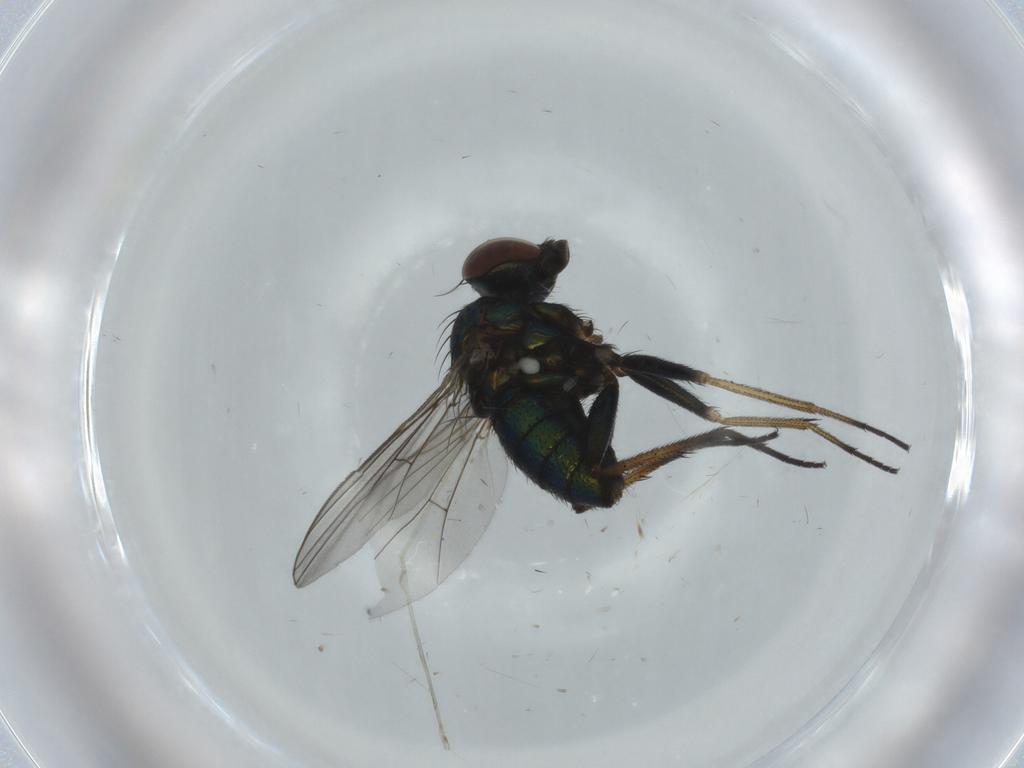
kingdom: Animalia
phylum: Arthropoda
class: Insecta
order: Diptera
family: Dolichopodidae
